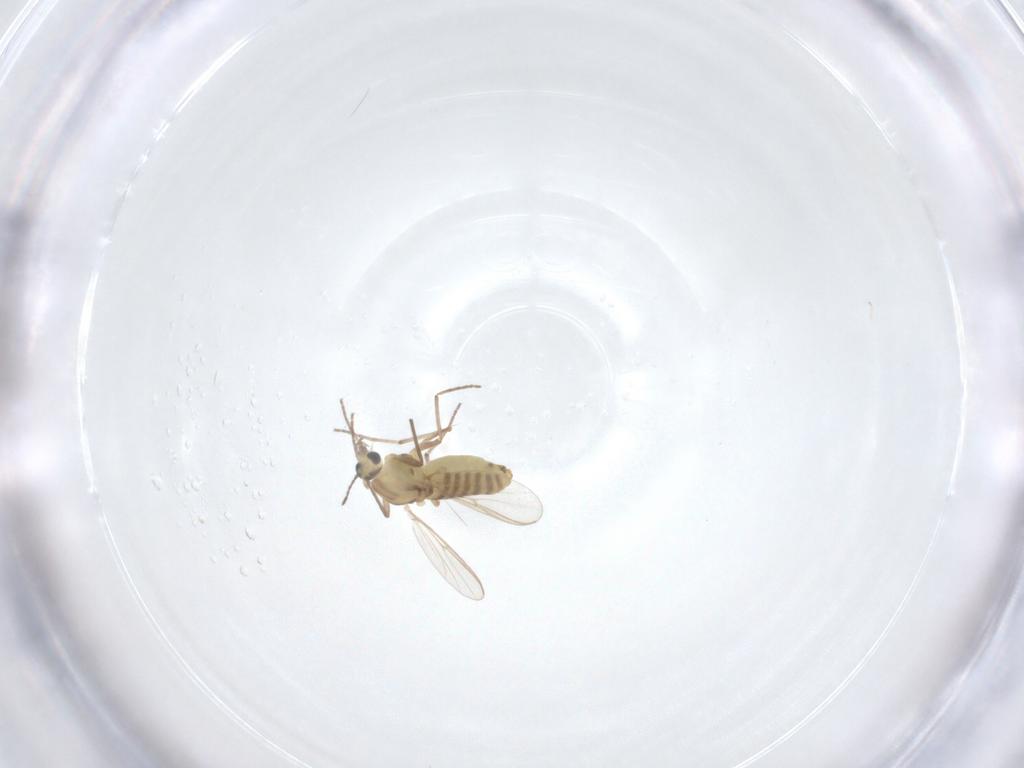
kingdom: Animalia
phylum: Arthropoda
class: Insecta
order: Diptera
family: Chironomidae
